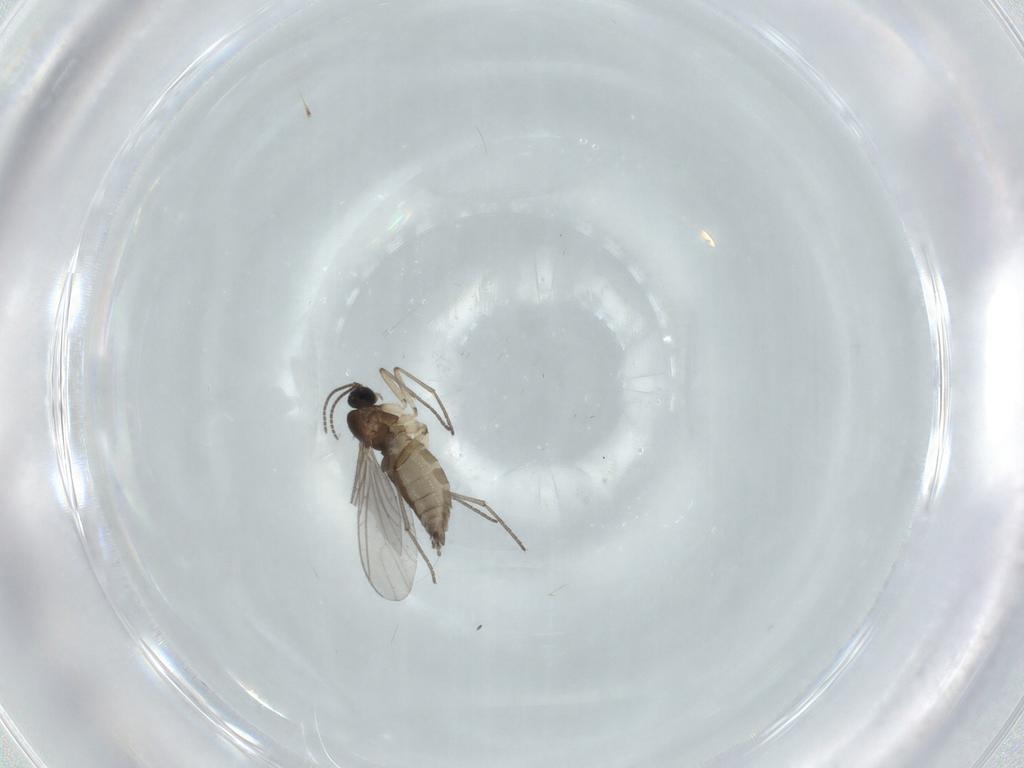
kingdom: Animalia
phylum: Arthropoda
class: Insecta
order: Diptera
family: Sciaridae
